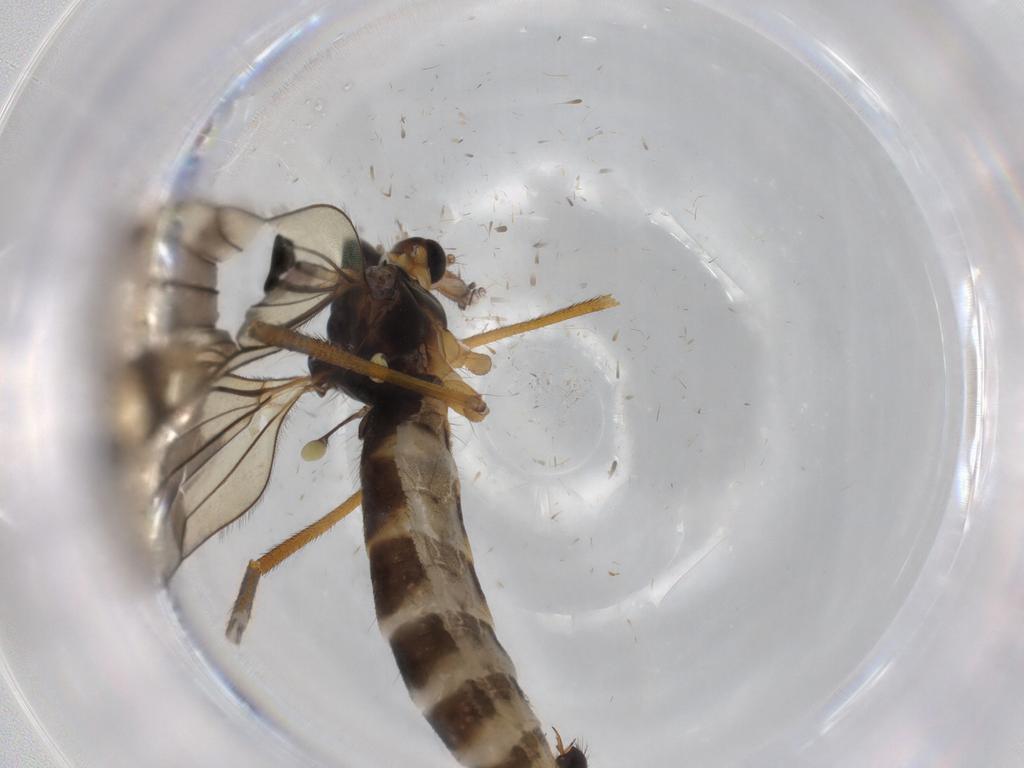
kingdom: Animalia
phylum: Arthropoda
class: Insecta
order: Diptera
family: Limoniidae
